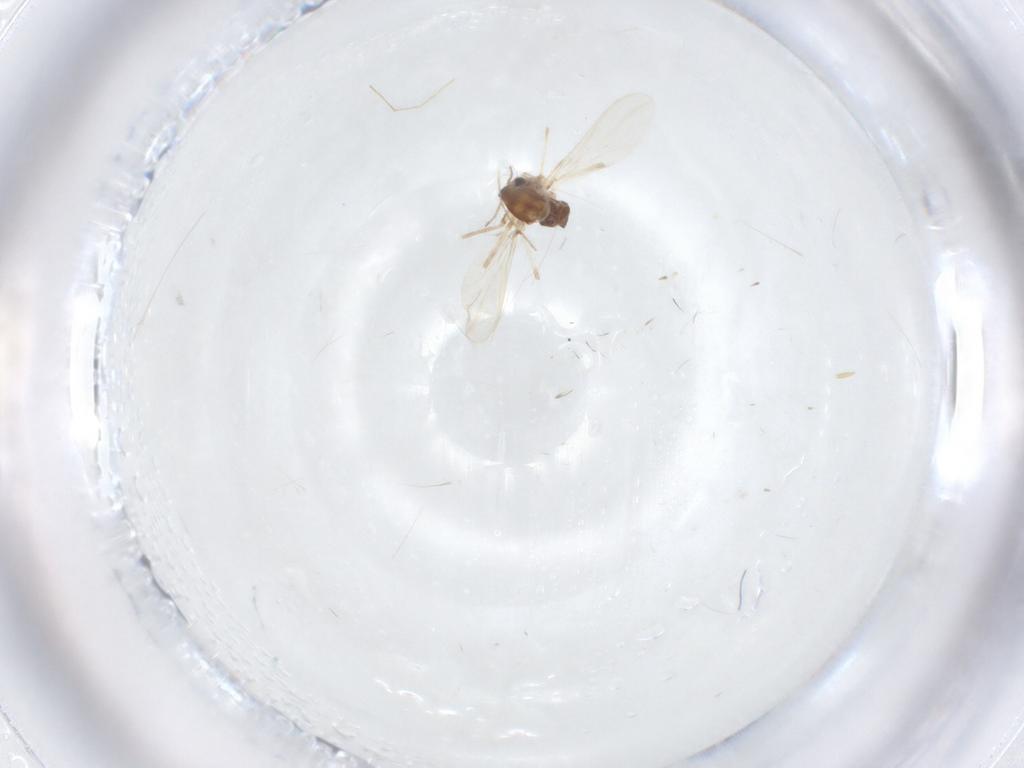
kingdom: Animalia
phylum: Arthropoda
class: Insecta
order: Diptera
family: Chironomidae
